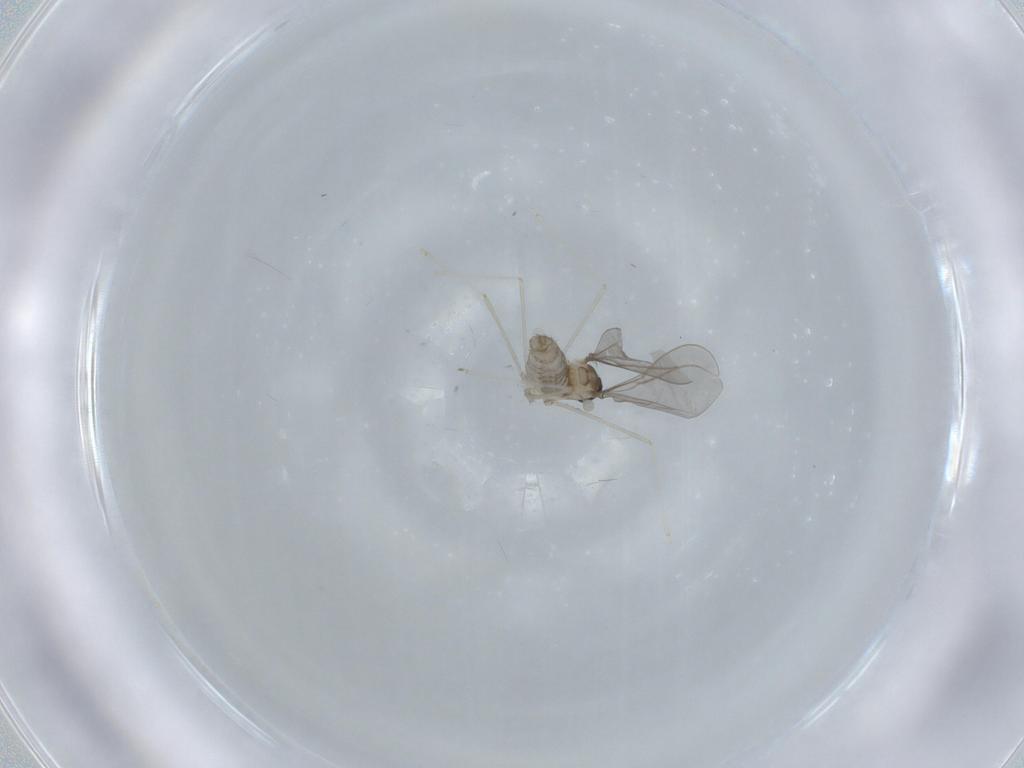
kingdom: Animalia
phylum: Arthropoda
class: Insecta
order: Diptera
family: Cecidomyiidae
